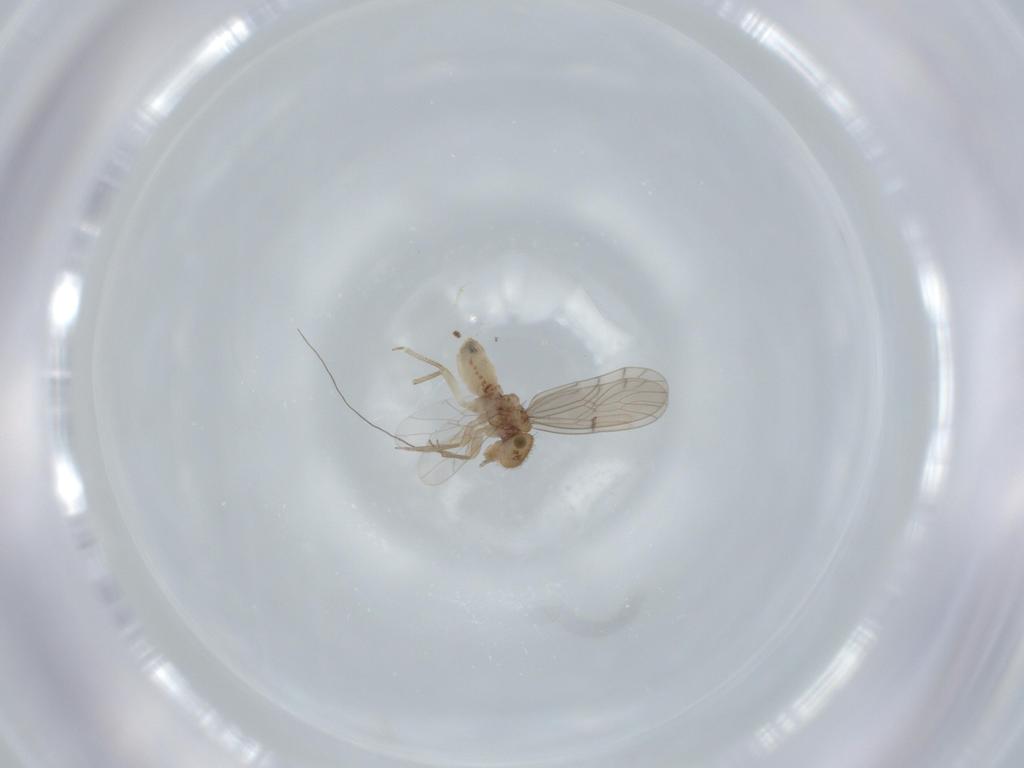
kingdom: Animalia
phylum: Arthropoda
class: Insecta
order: Psocodea
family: Ectopsocidae
